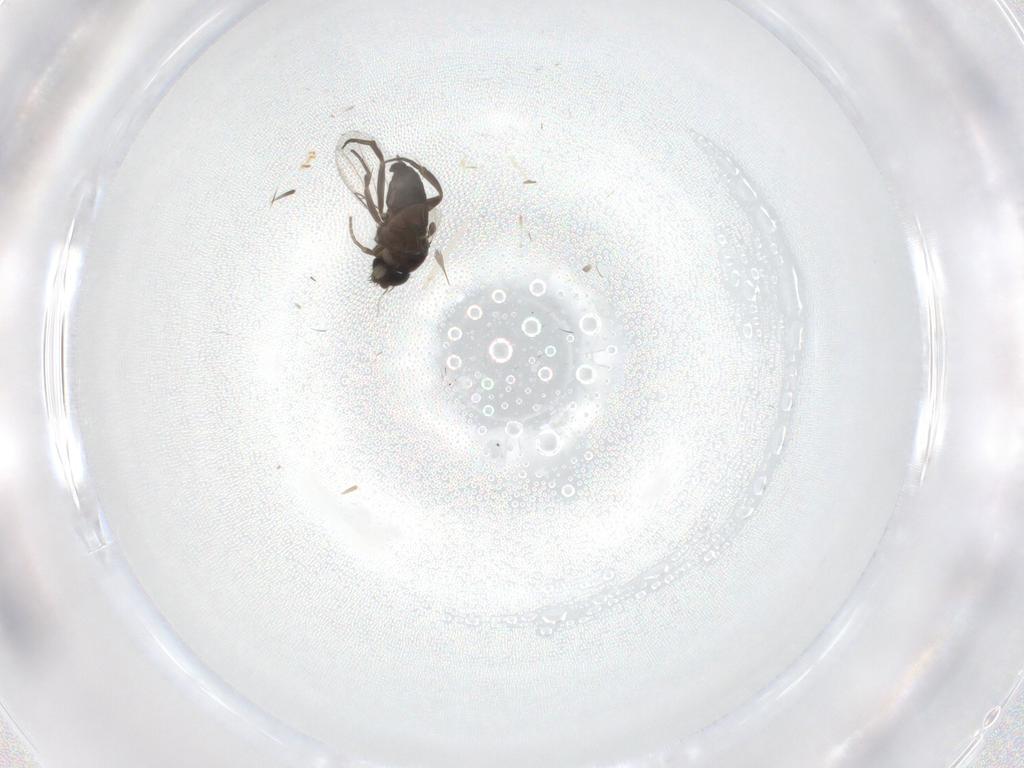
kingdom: Animalia
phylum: Arthropoda
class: Insecta
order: Diptera
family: Phoridae
